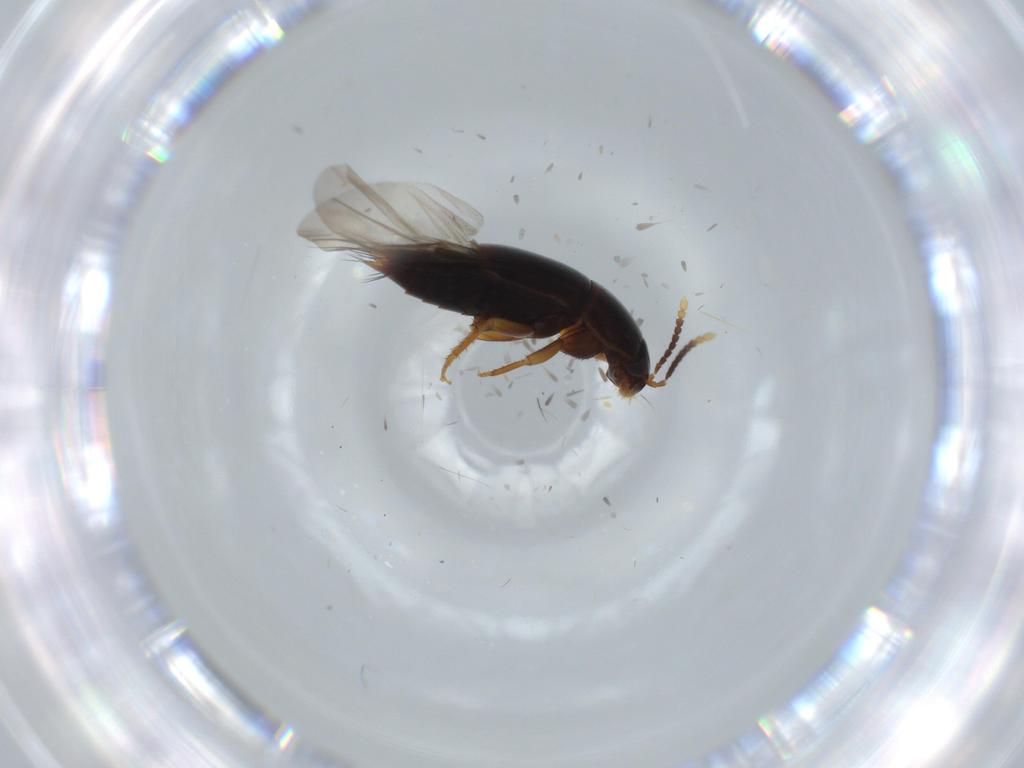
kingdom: Animalia
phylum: Arthropoda
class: Insecta
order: Coleoptera
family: Staphylinidae
